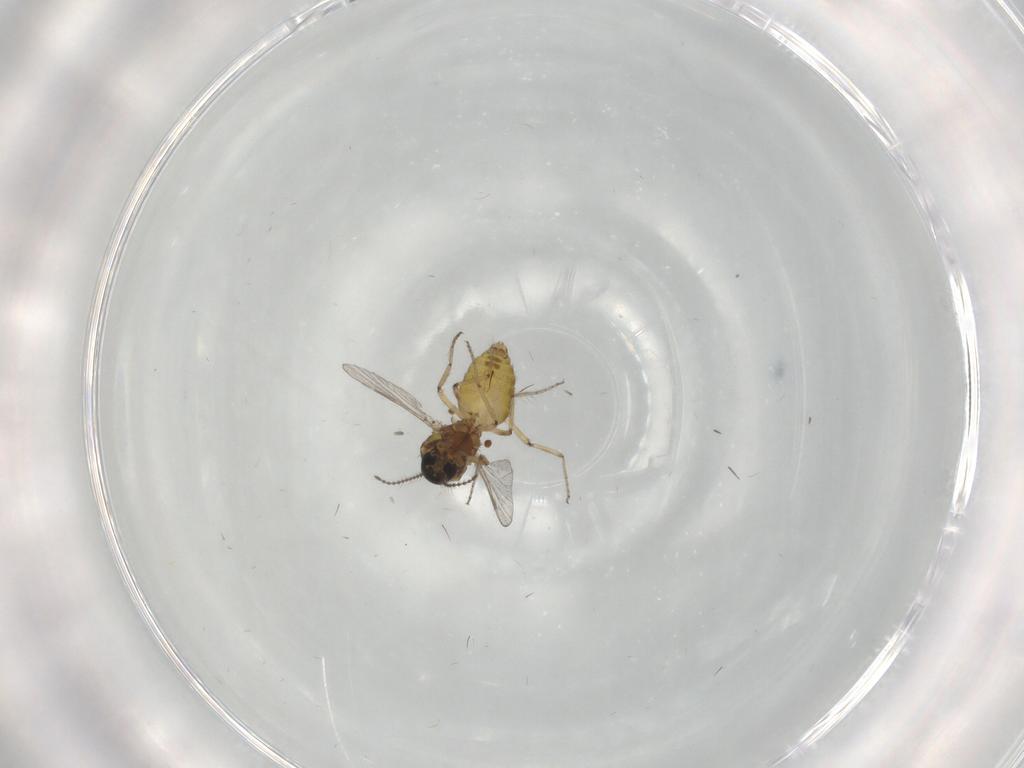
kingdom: Animalia
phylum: Arthropoda
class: Insecta
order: Diptera
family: Ceratopogonidae
